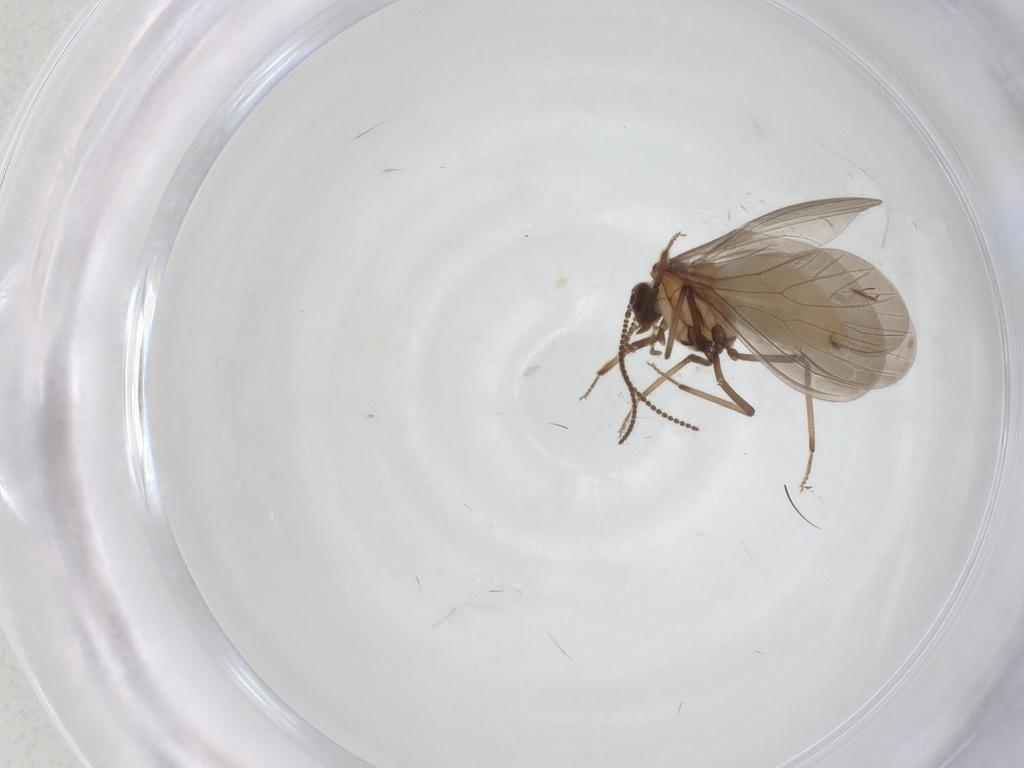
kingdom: Animalia
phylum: Arthropoda
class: Insecta
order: Neuroptera
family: Coniopterygidae
